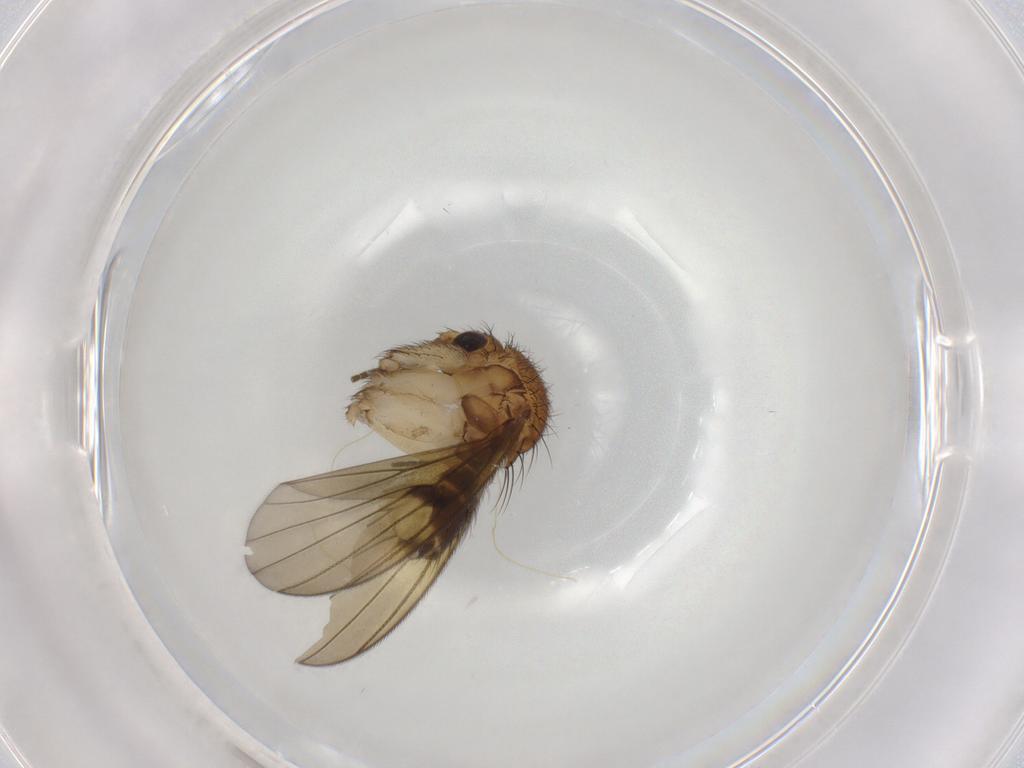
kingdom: Animalia
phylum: Arthropoda
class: Insecta
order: Diptera
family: Mycetophilidae
